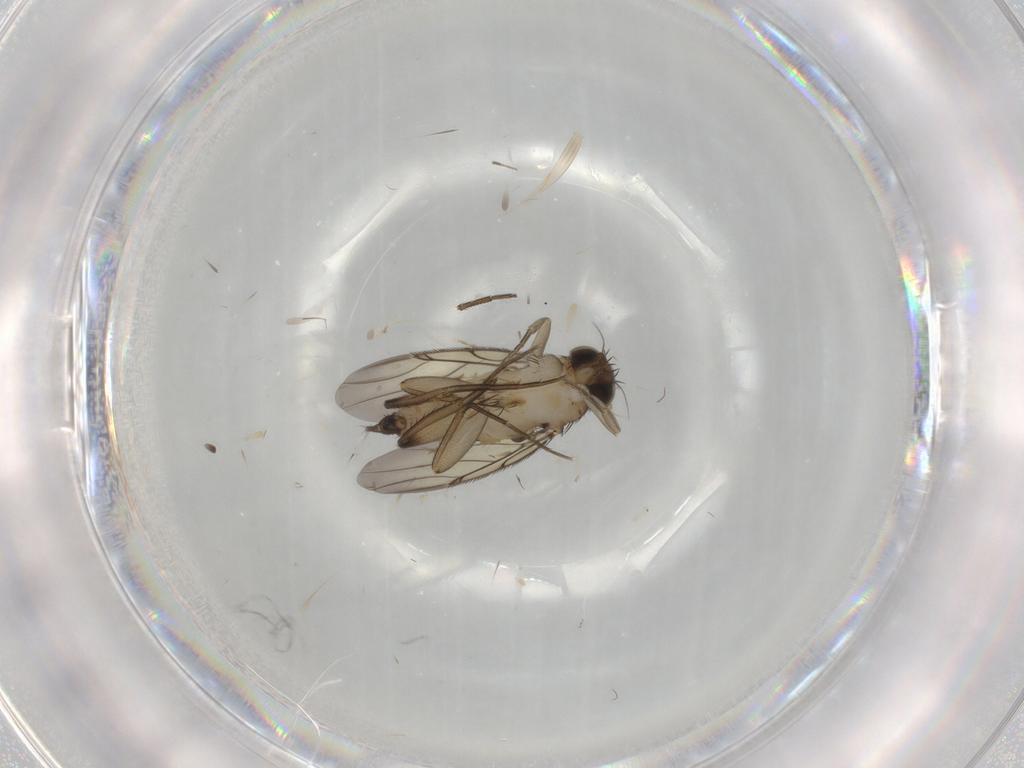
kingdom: Animalia
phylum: Arthropoda
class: Insecta
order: Diptera
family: Phoridae
